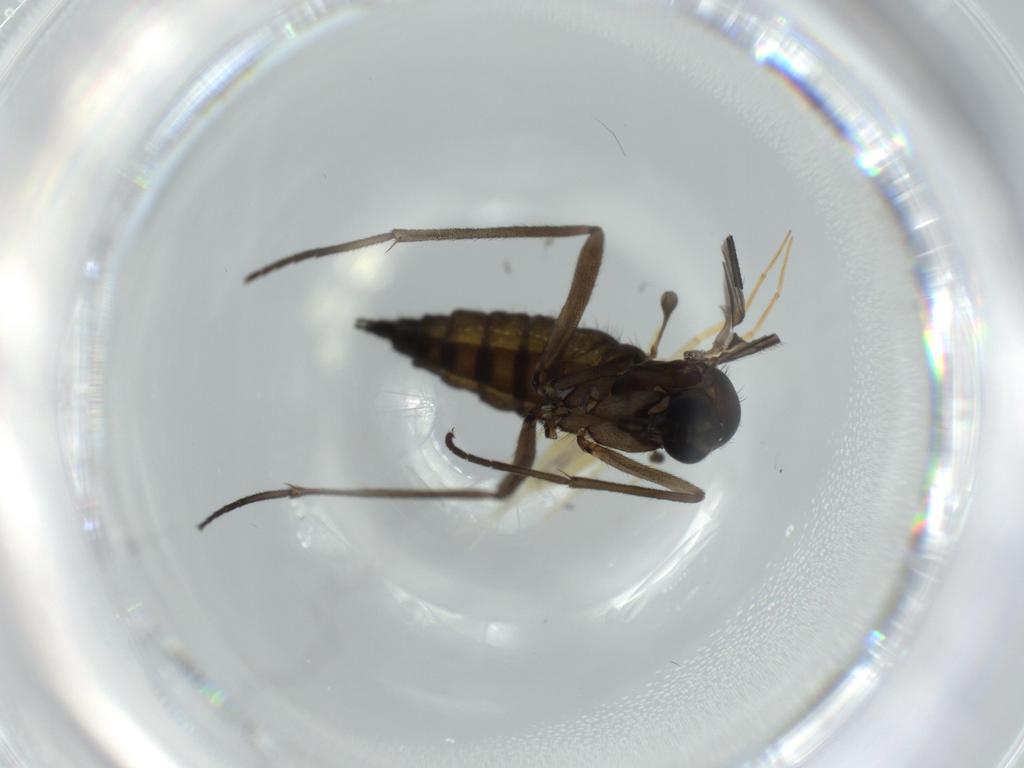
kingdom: Animalia
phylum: Arthropoda
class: Insecta
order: Diptera
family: Sciaridae
